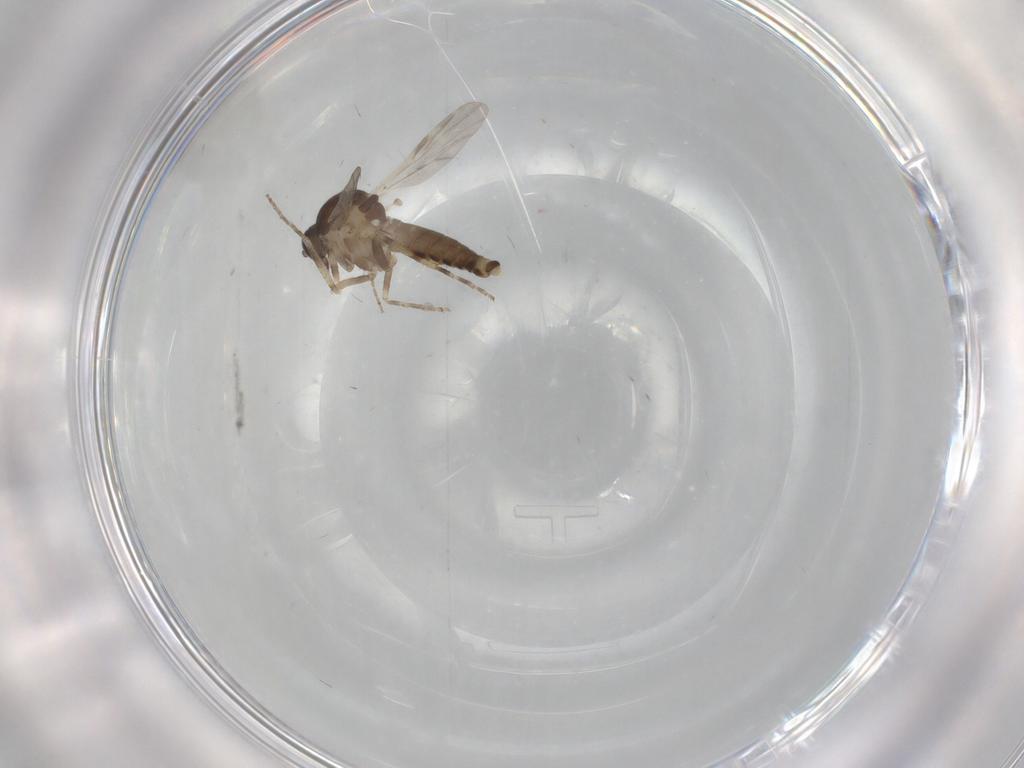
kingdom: Animalia
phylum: Arthropoda
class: Insecta
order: Diptera
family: Ceratopogonidae
